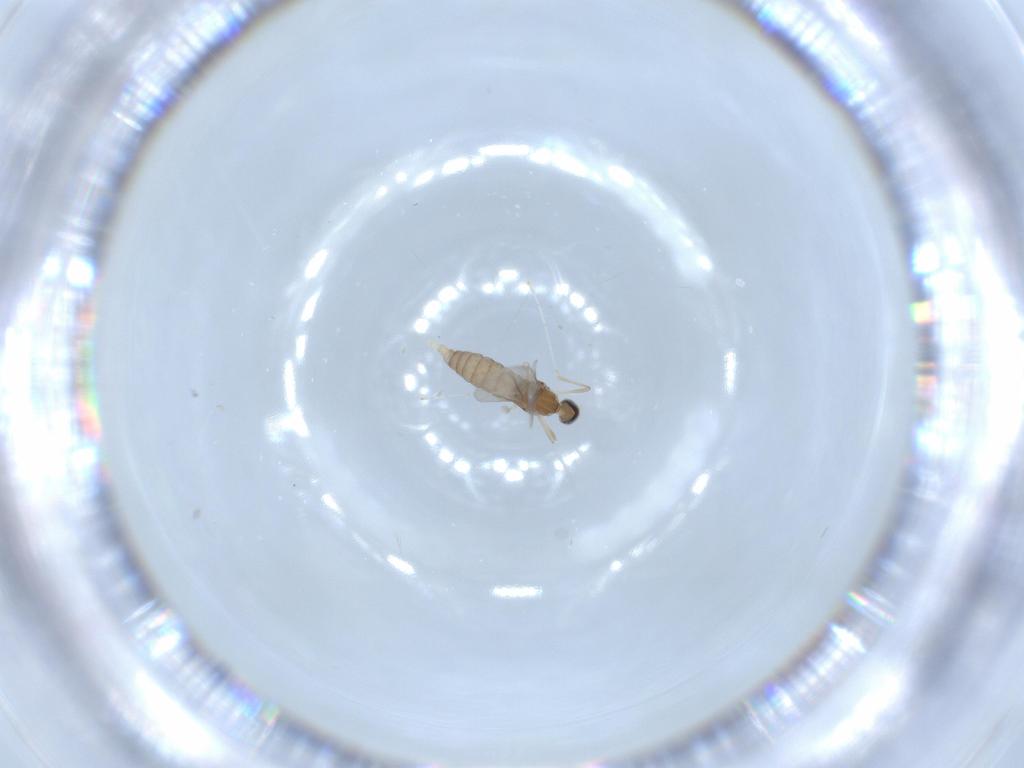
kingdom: Animalia
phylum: Arthropoda
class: Insecta
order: Diptera
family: Cecidomyiidae
